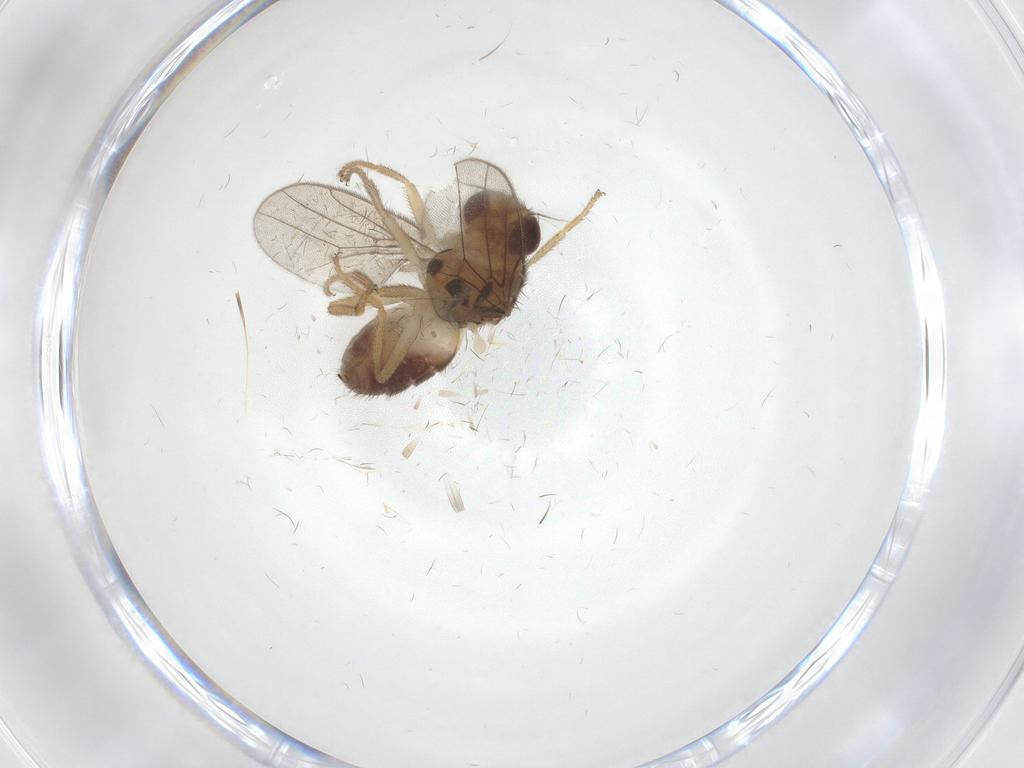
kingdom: Animalia
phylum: Arthropoda
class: Insecta
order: Diptera
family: Chloropidae
